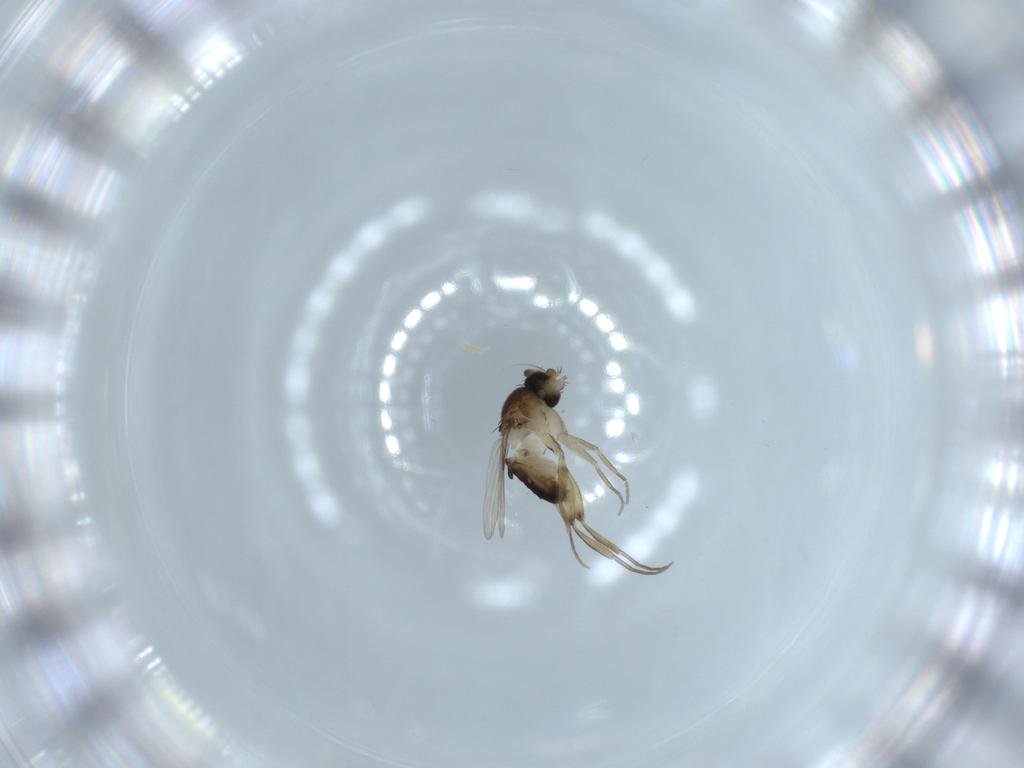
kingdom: Animalia
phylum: Arthropoda
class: Insecta
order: Diptera
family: Phoridae
